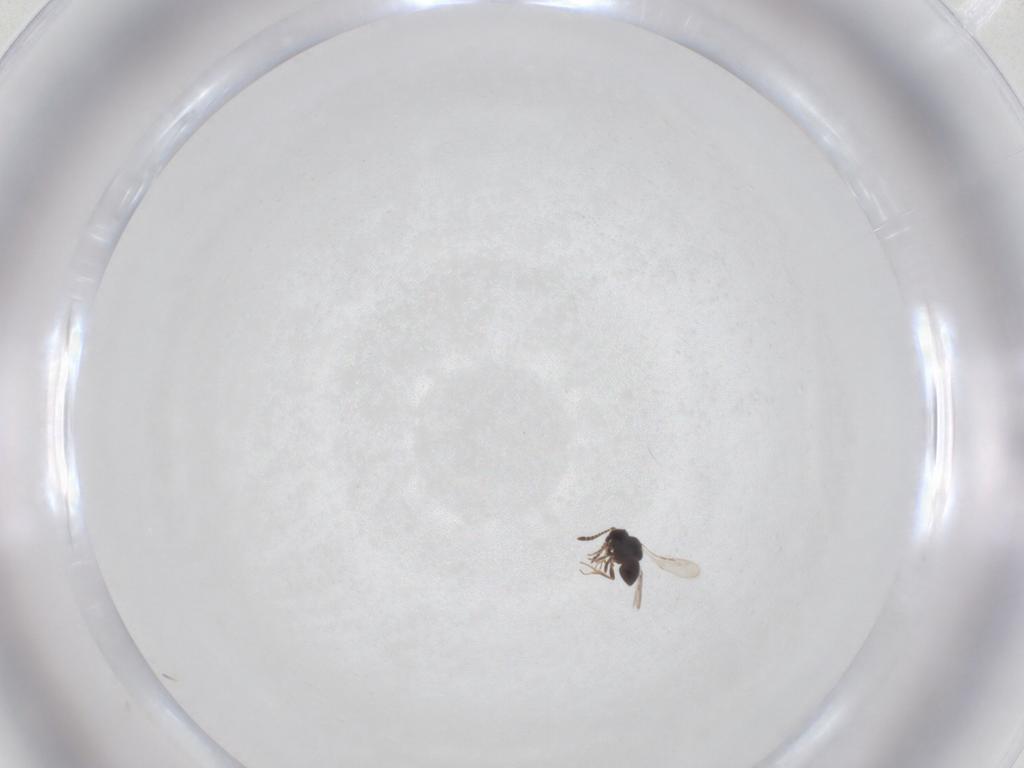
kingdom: Animalia
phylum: Arthropoda
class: Insecta
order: Hymenoptera
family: Ceraphronidae
